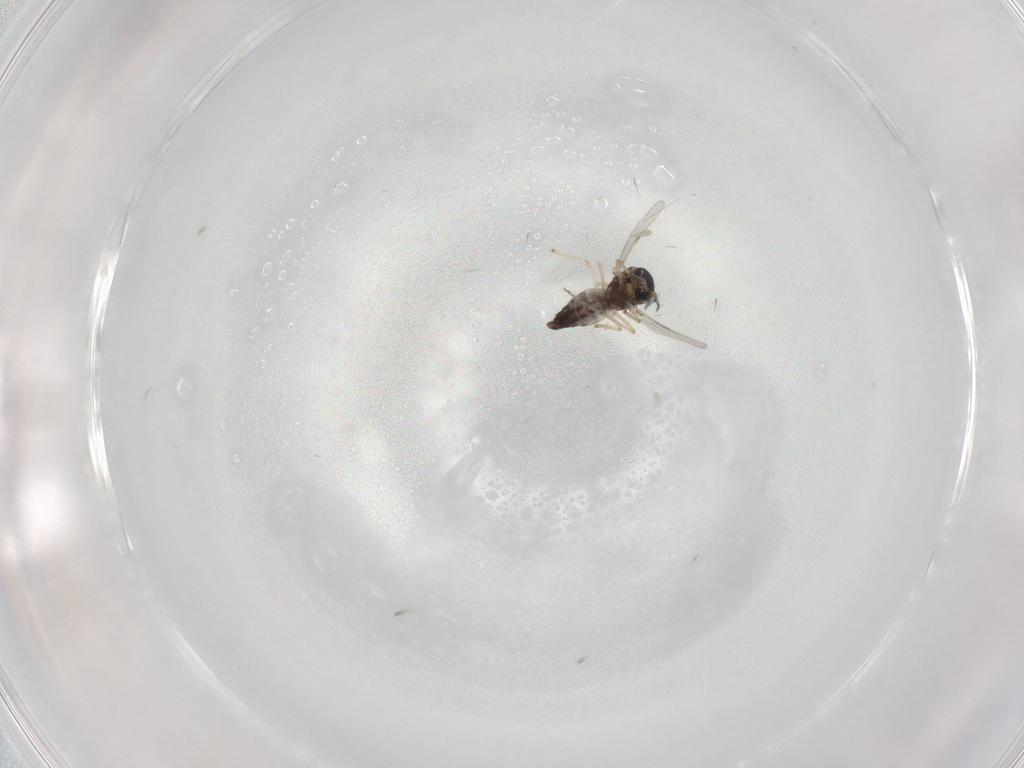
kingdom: Animalia
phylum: Arthropoda
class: Insecta
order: Diptera
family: Ceratopogonidae
